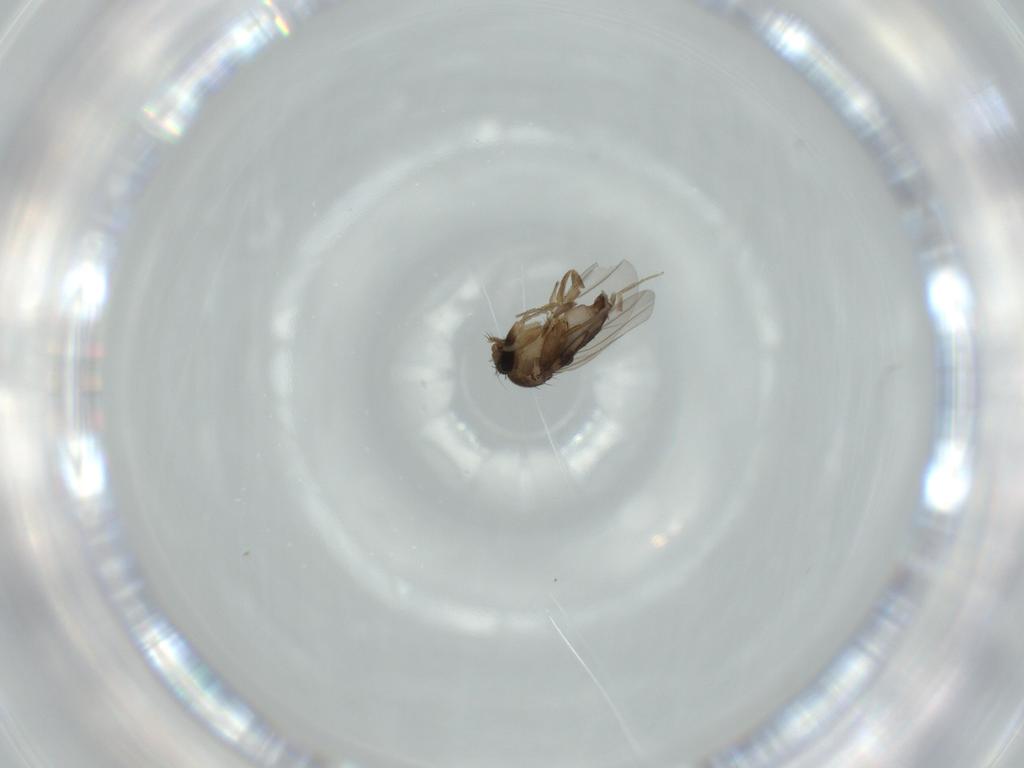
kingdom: Animalia
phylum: Arthropoda
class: Insecta
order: Diptera
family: Phoridae
